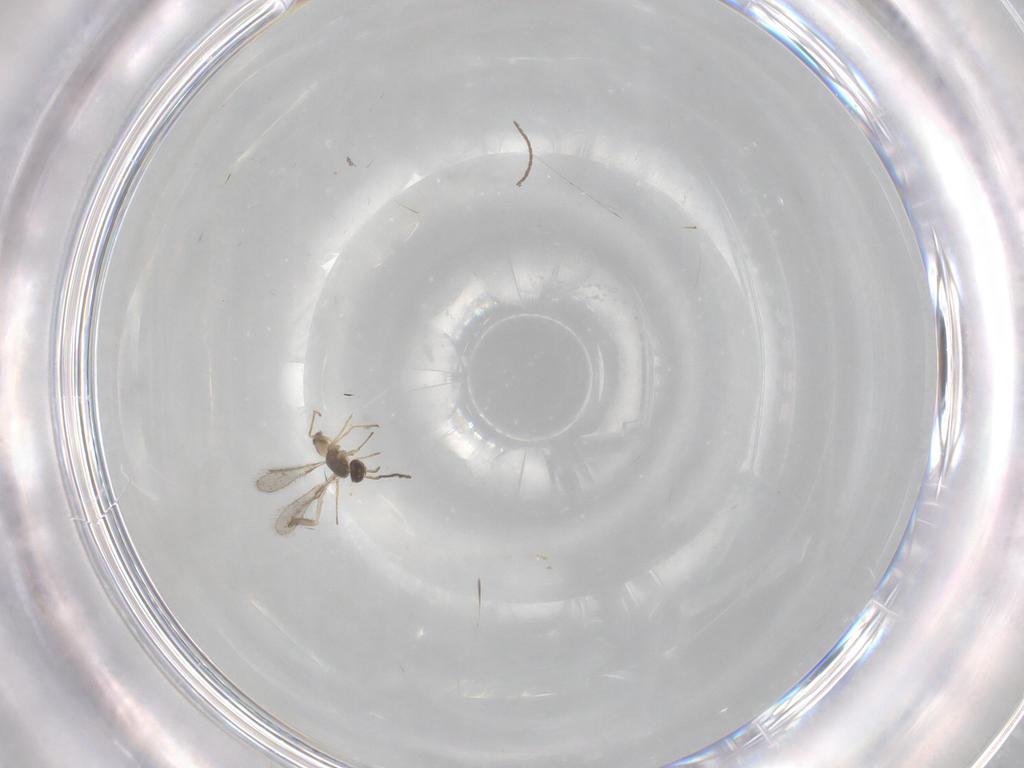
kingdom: Animalia
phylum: Arthropoda
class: Insecta
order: Hymenoptera
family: Mymaridae
